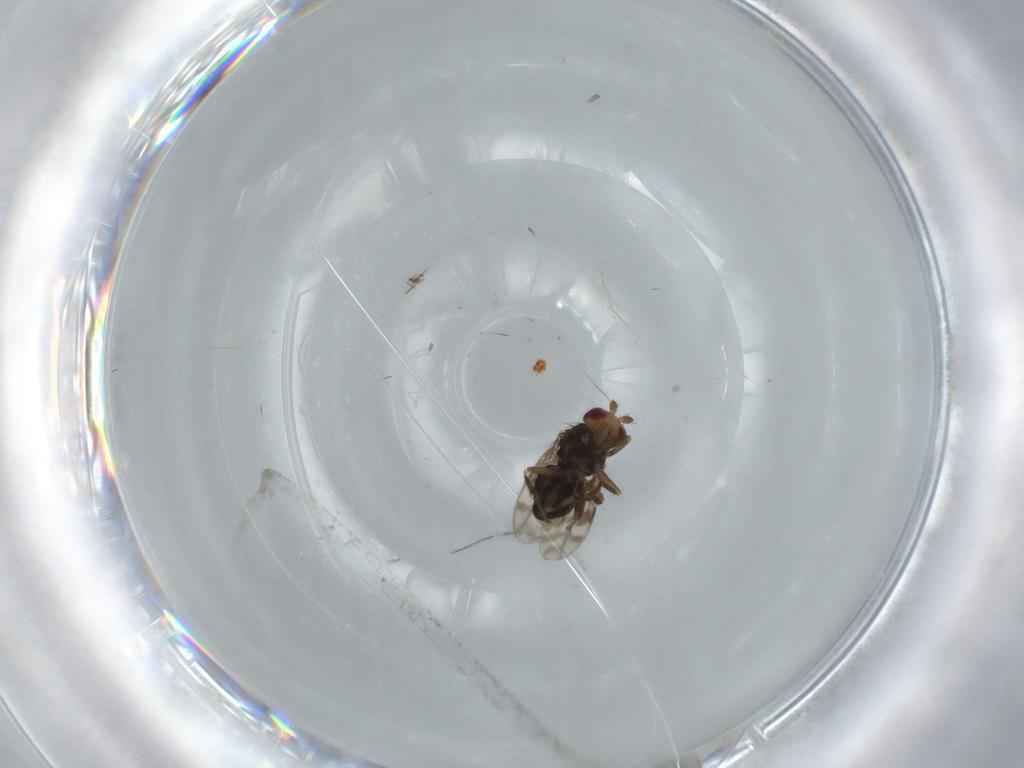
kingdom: Animalia
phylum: Arthropoda
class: Insecta
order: Diptera
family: Sphaeroceridae
